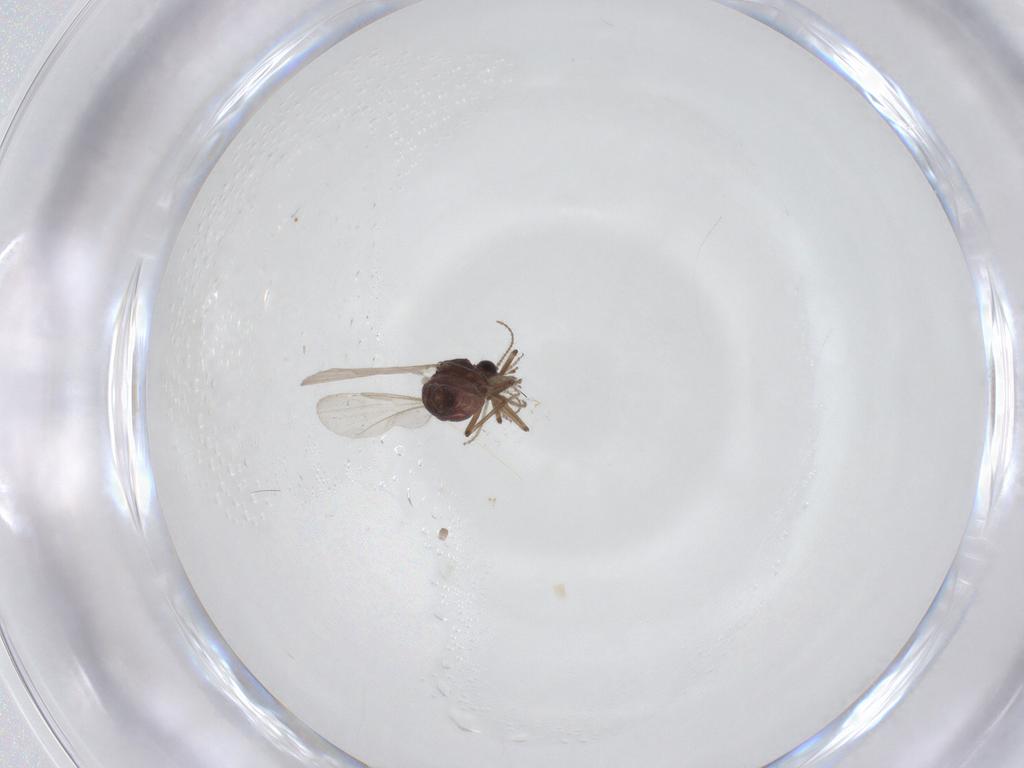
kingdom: Animalia
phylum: Arthropoda
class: Insecta
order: Diptera
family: Ceratopogonidae
